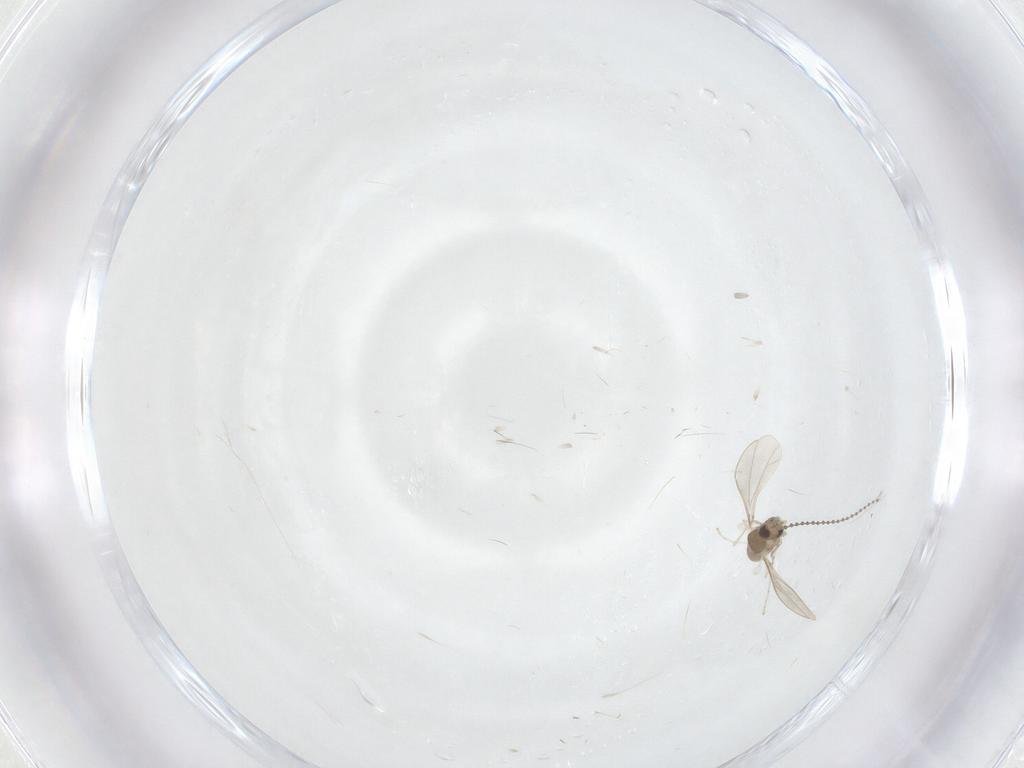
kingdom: Animalia
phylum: Arthropoda
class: Insecta
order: Diptera
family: Cecidomyiidae
